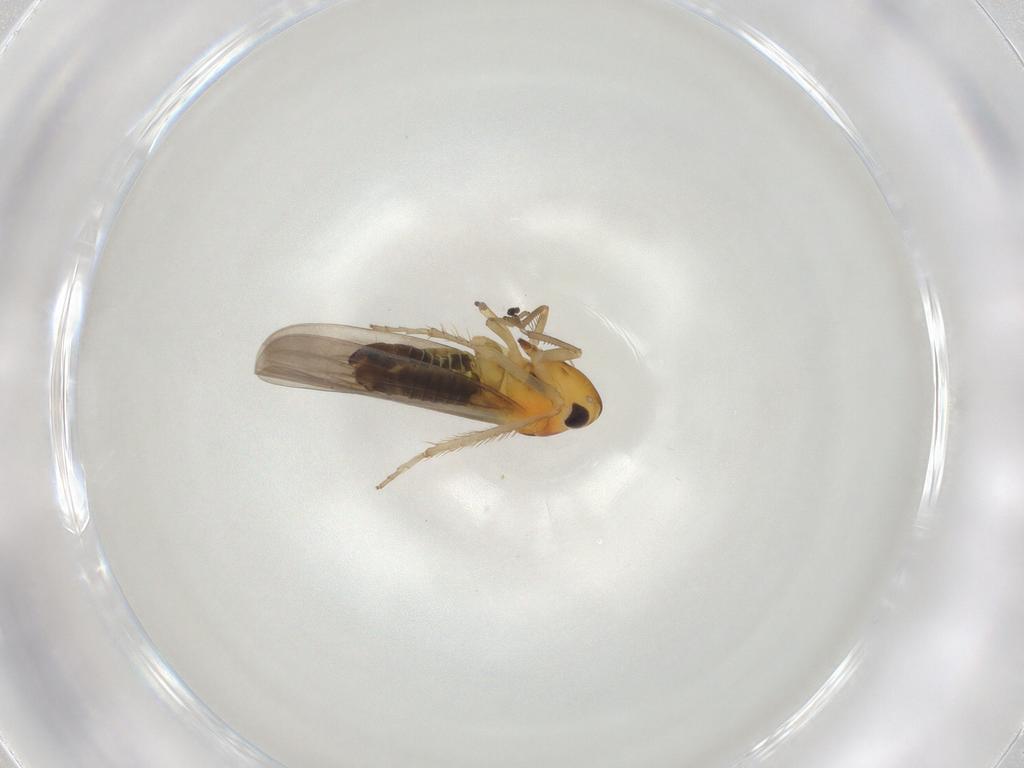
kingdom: Animalia
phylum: Arthropoda
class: Insecta
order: Hemiptera
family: Cicadellidae
